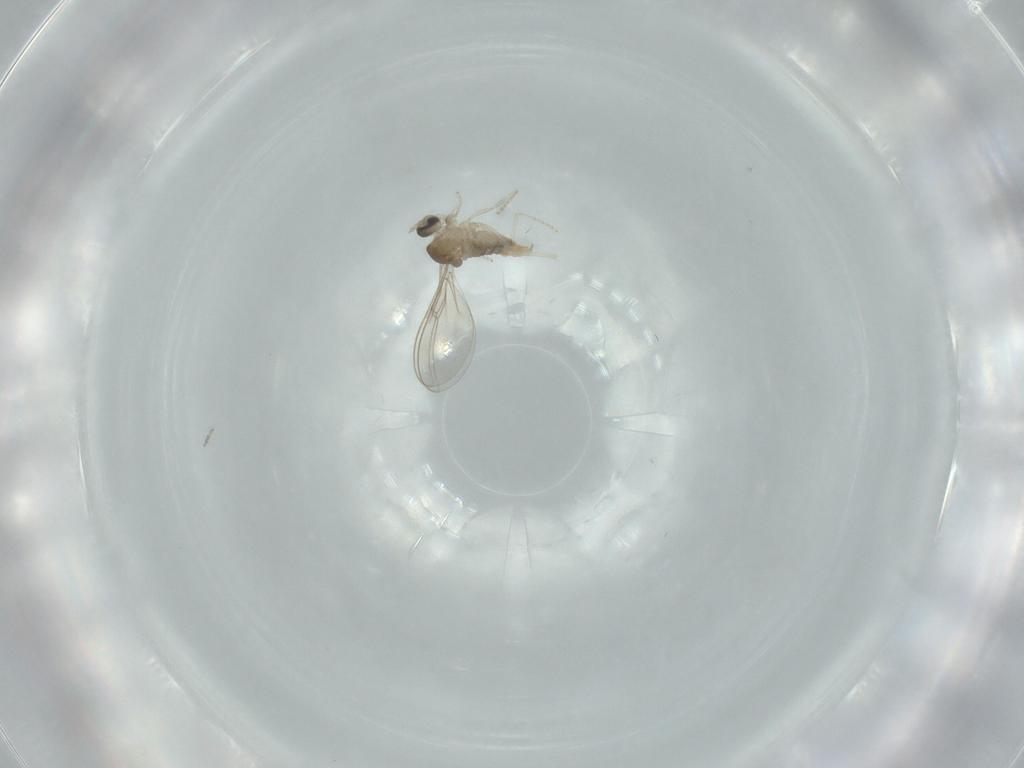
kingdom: Animalia
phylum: Arthropoda
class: Insecta
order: Diptera
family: Cecidomyiidae
